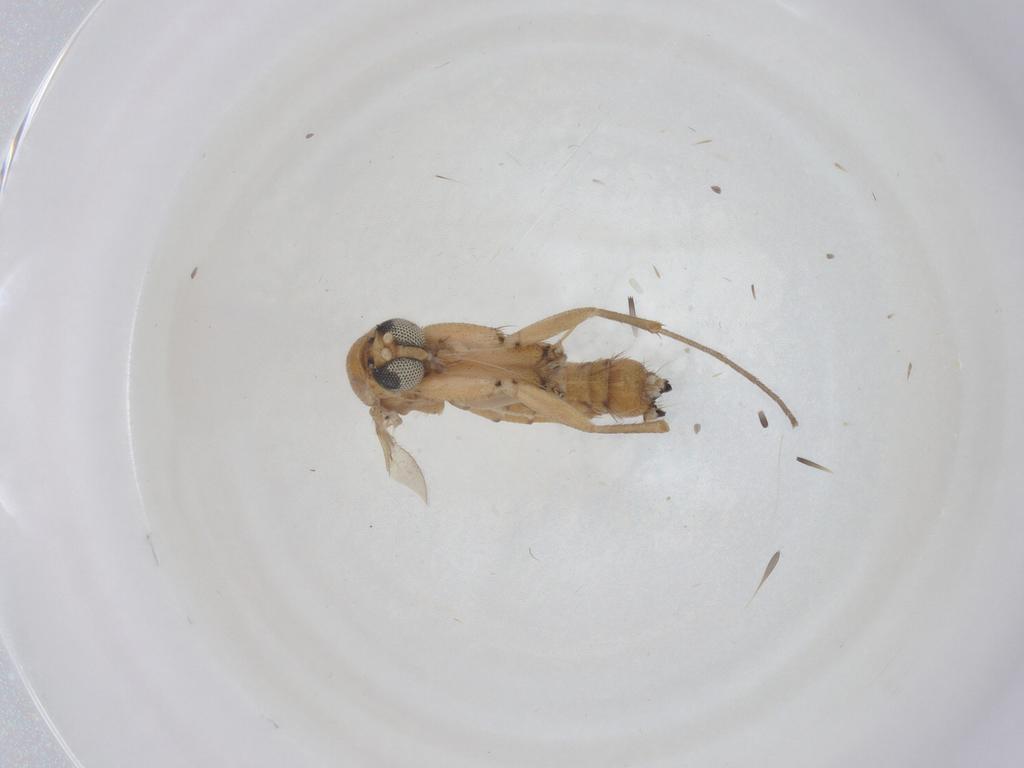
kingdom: Animalia
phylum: Arthropoda
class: Insecta
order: Diptera
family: Mycetophilidae
